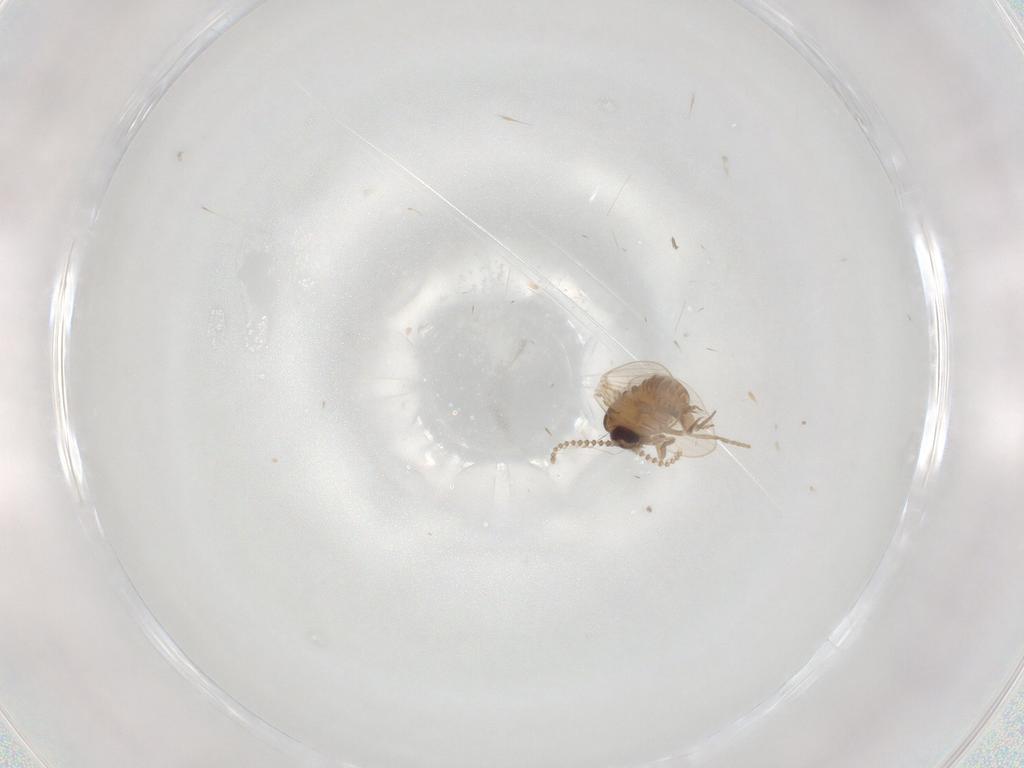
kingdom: Animalia
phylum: Arthropoda
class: Insecta
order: Diptera
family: Psychodidae
